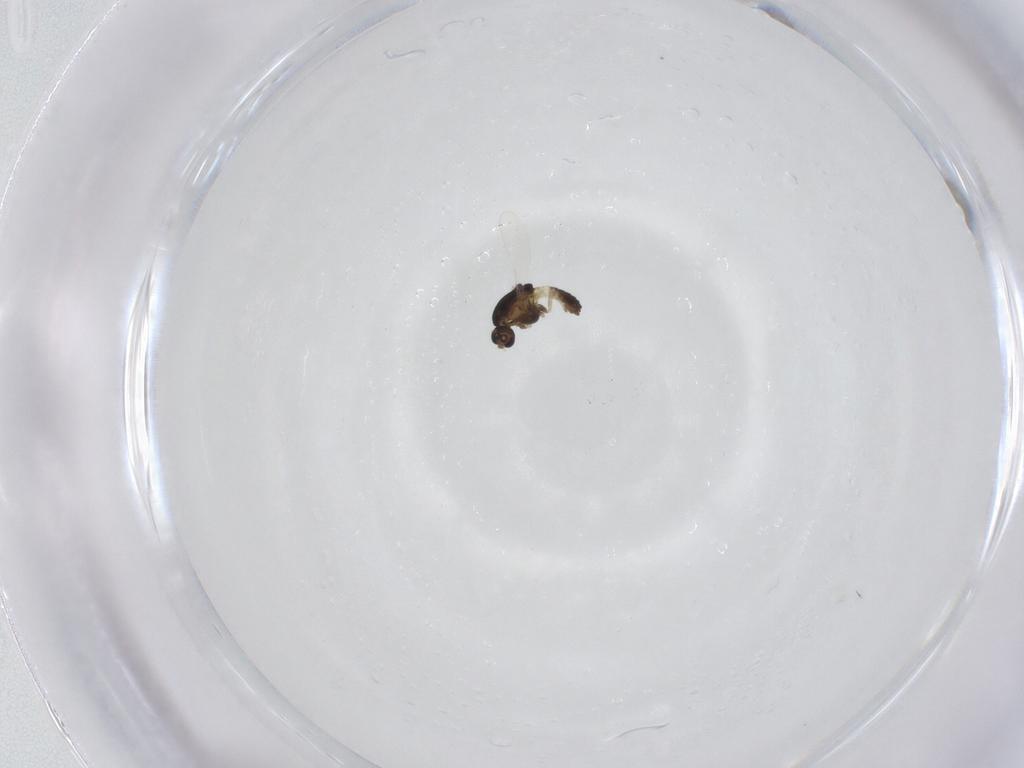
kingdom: Animalia
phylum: Arthropoda
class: Insecta
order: Diptera
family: Chironomidae
